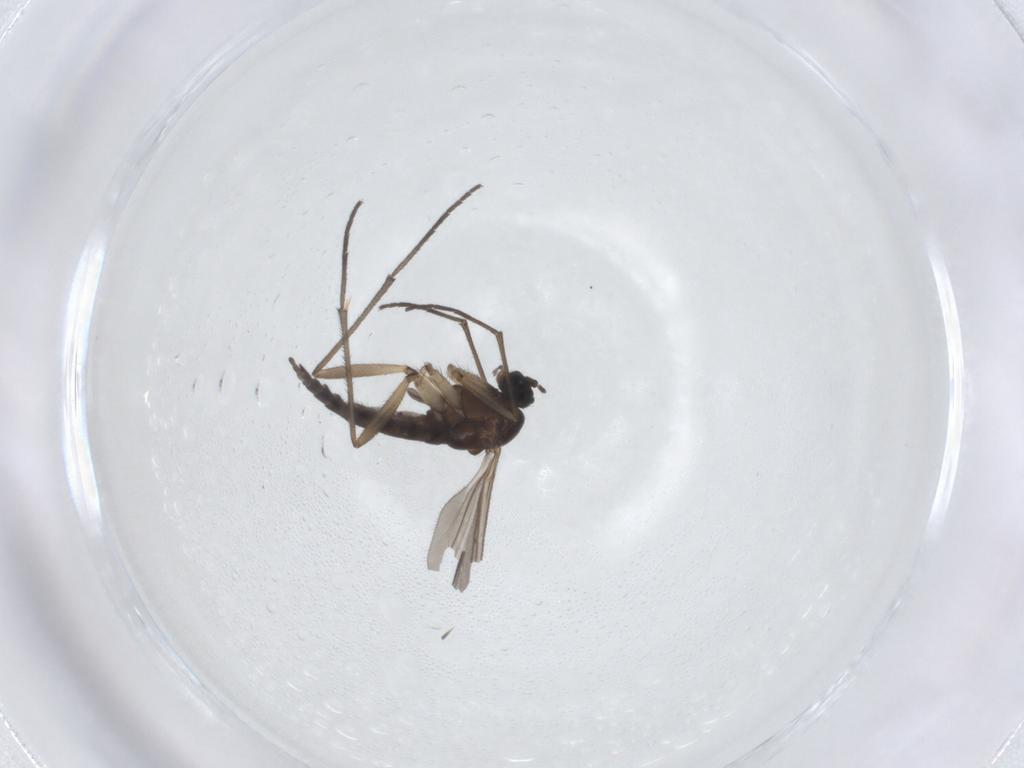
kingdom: Animalia
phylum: Arthropoda
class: Insecta
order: Diptera
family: Sciaridae
